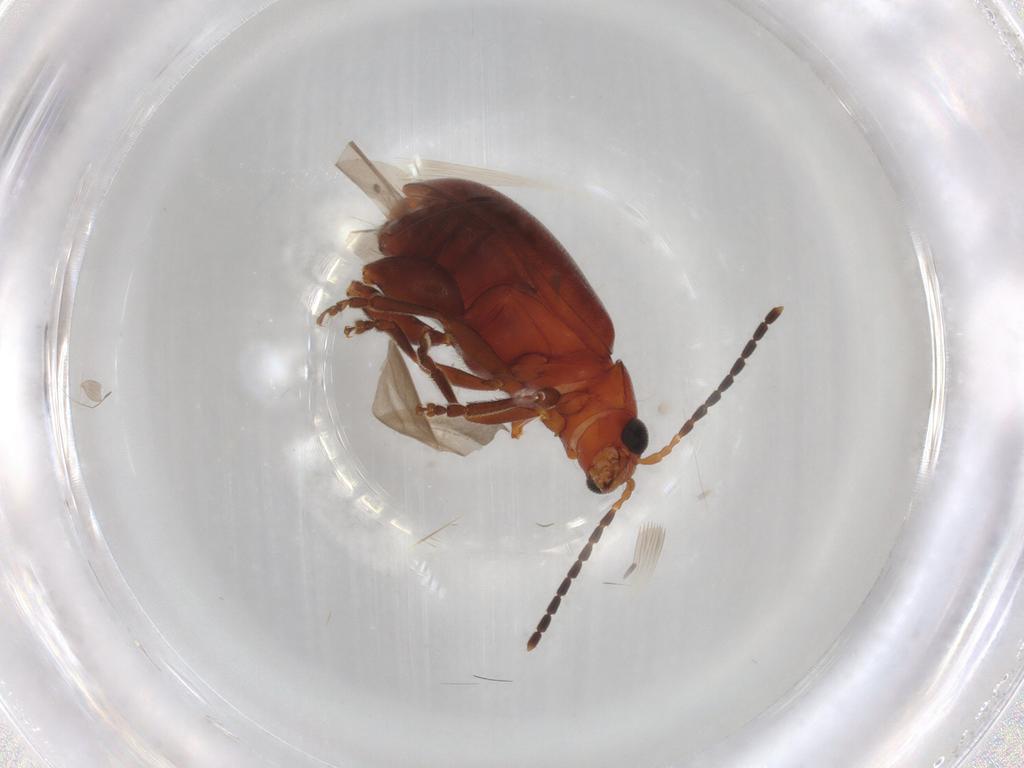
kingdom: Animalia
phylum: Arthropoda
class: Insecta
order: Coleoptera
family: Chrysomelidae
